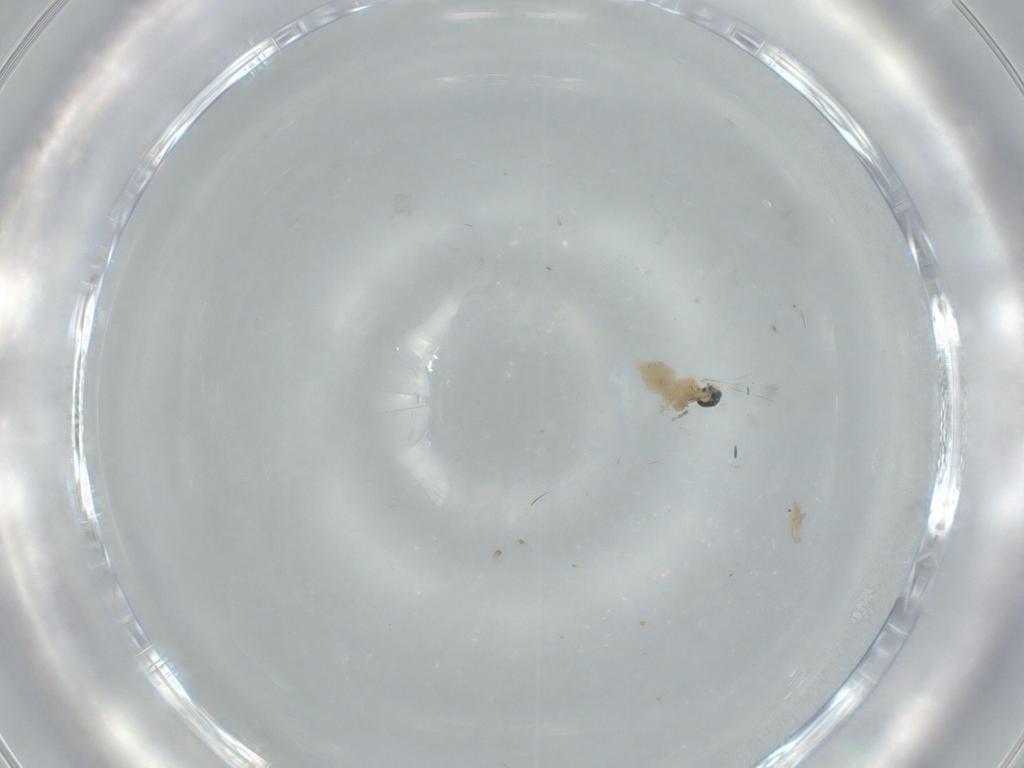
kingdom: Animalia
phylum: Arthropoda
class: Insecta
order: Diptera
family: Cecidomyiidae
